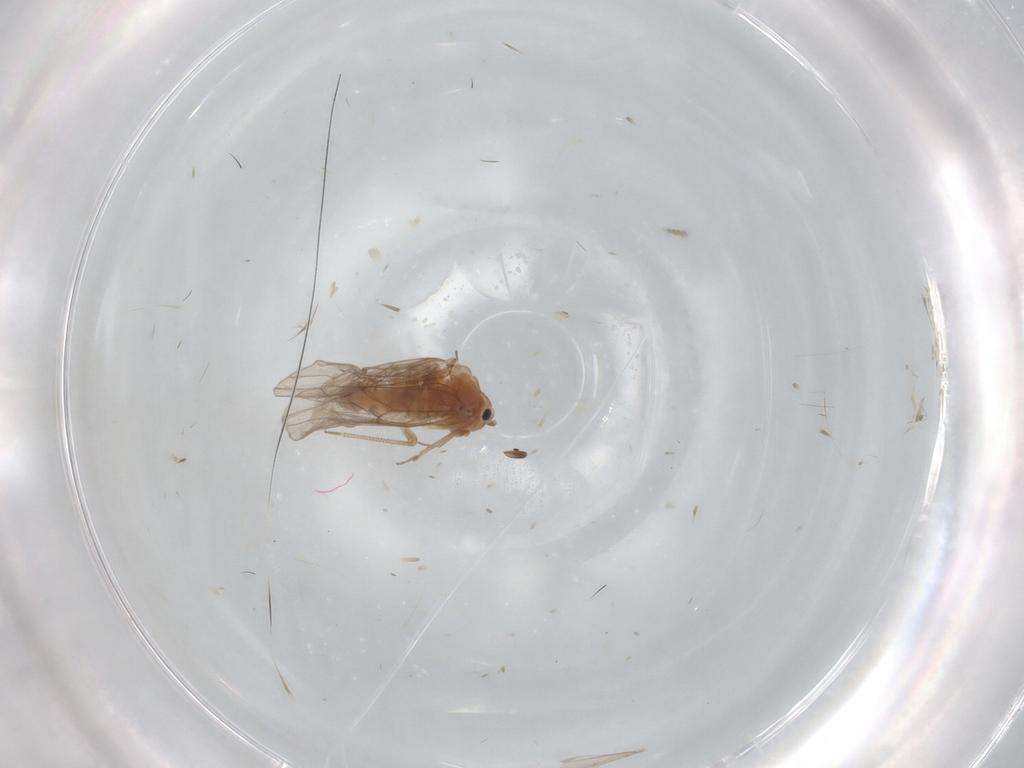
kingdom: Animalia
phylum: Arthropoda
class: Insecta
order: Psocodea
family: Ectopsocidae
